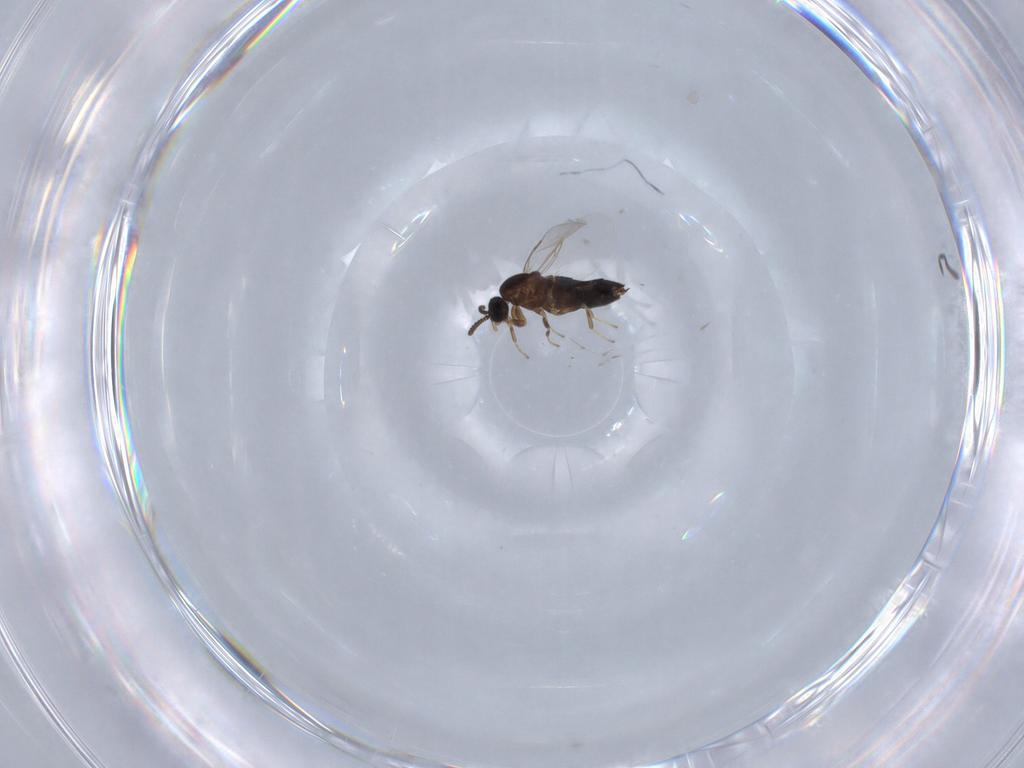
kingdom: Animalia
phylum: Arthropoda
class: Insecta
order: Diptera
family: Scatopsidae
